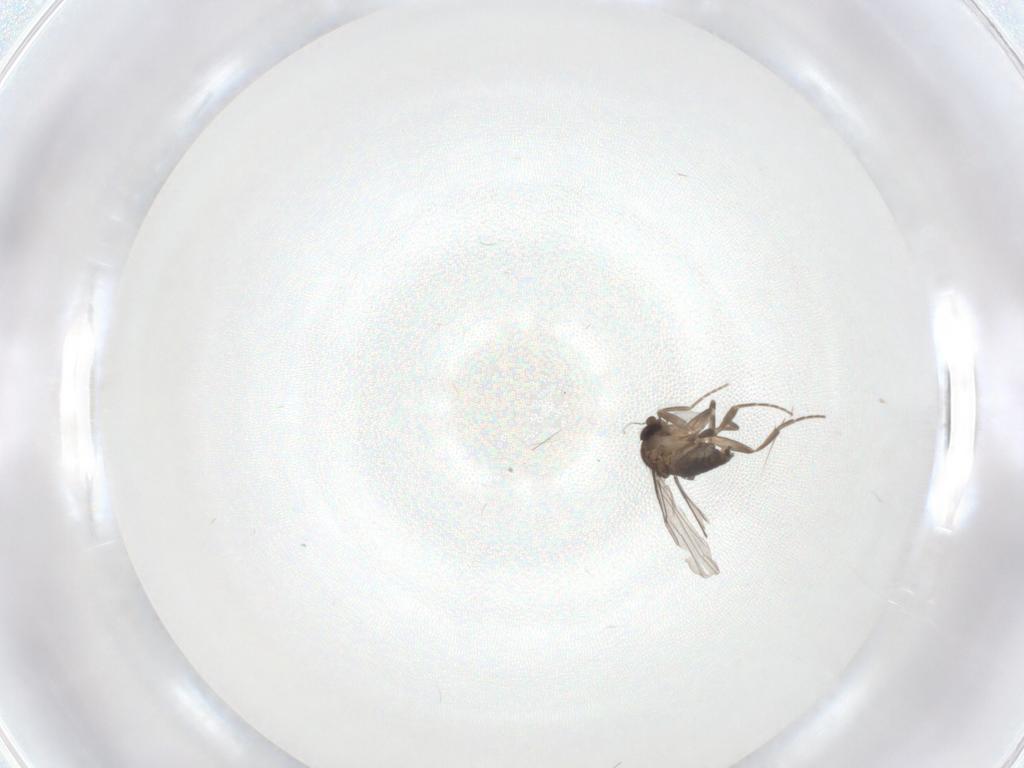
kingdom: Animalia
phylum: Arthropoda
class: Insecta
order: Diptera
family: Phoridae
